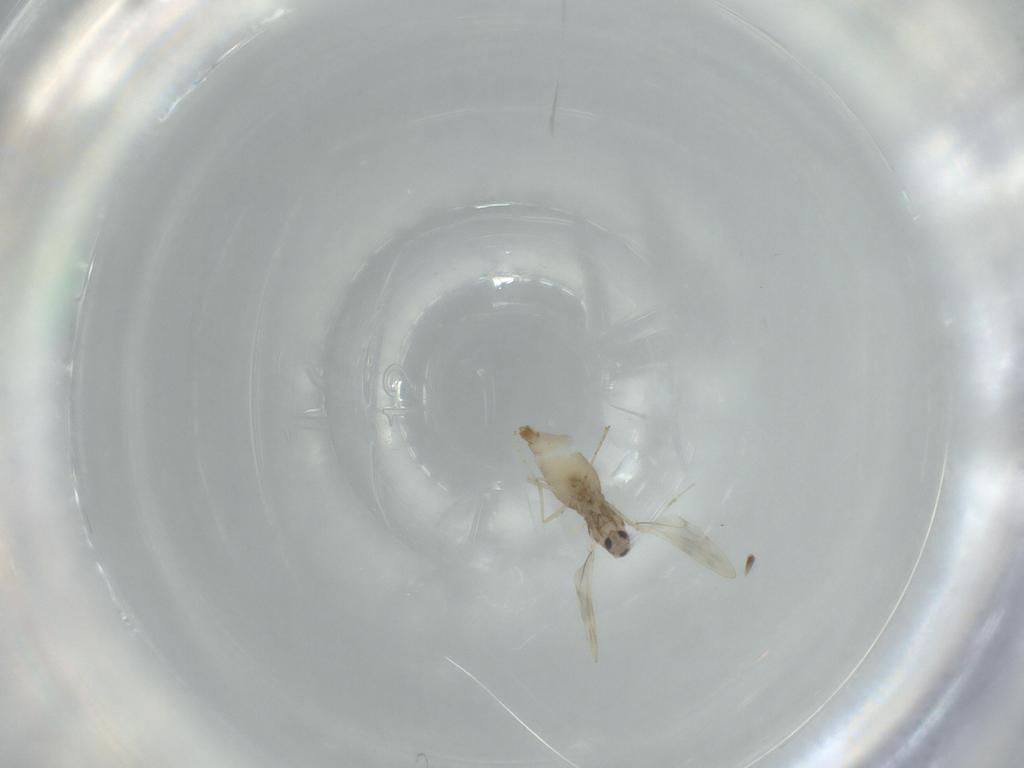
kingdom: Animalia
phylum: Arthropoda
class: Insecta
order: Diptera
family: Cecidomyiidae
